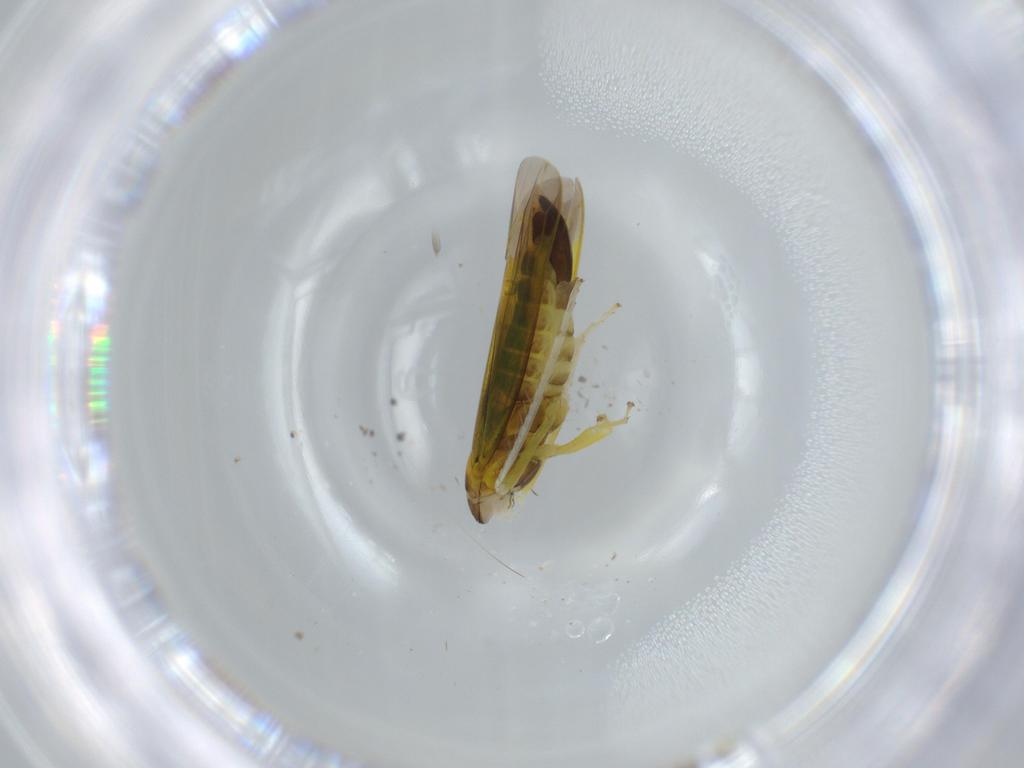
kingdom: Animalia
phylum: Arthropoda
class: Insecta
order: Hemiptera
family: Cicadellidae
